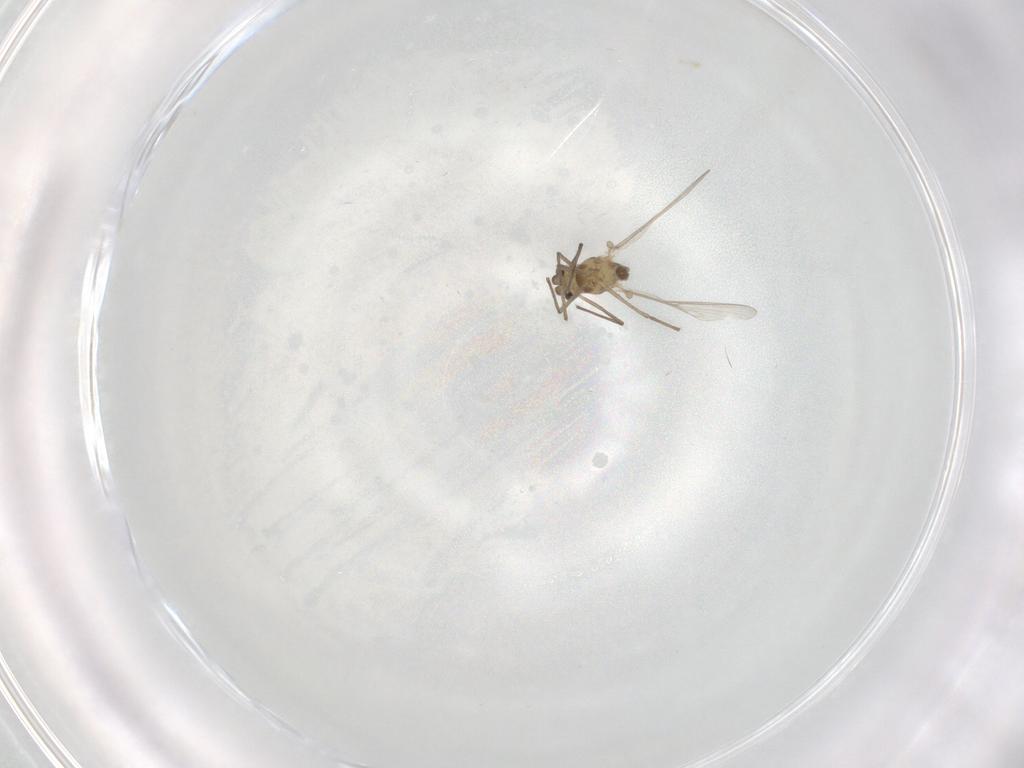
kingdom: Animalia
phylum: Arthropoda
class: Insecta
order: Diptera
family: Chironomidae
